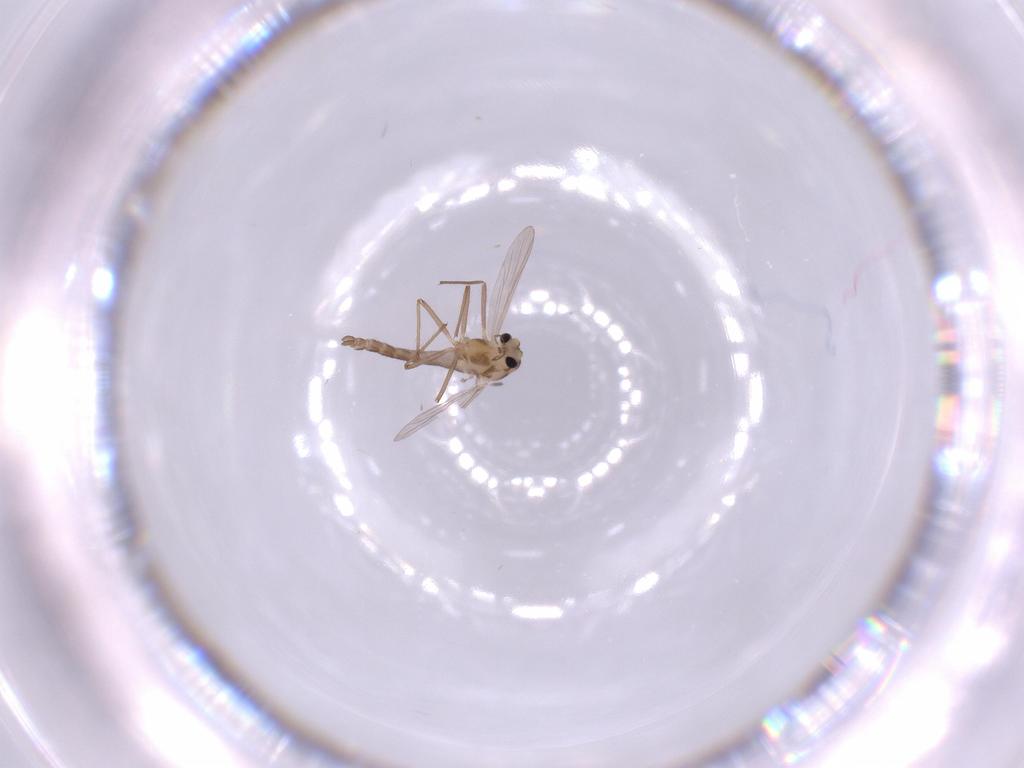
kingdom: Animalia
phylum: Arthropoda
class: Insecta
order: Diptera
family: Chironomidae
